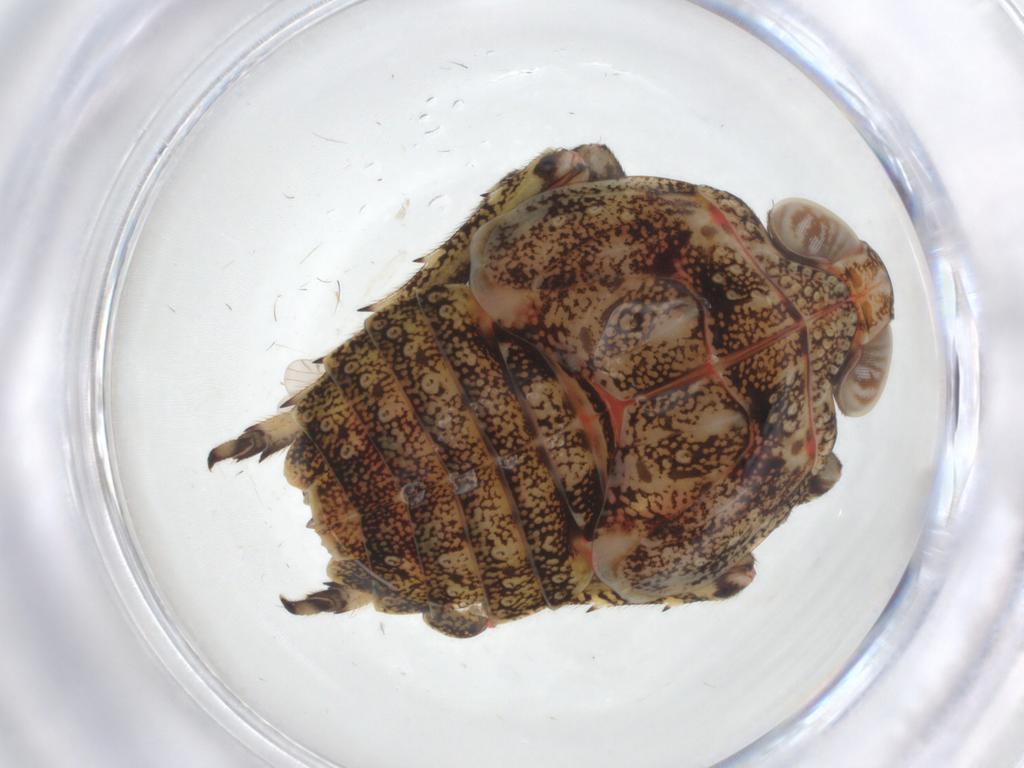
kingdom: Animalia
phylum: Arthropoda
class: Insecta
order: Hemiptera
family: Issidae
